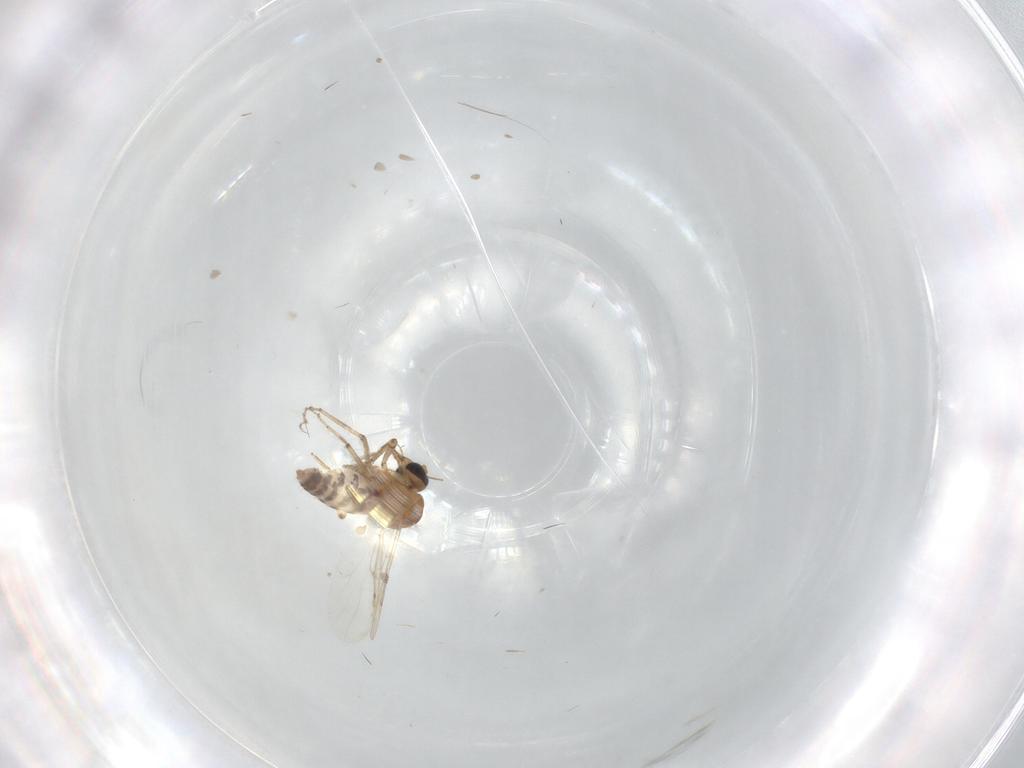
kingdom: Animalia
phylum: Arthropoda
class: Insecta
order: Diptera
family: Ceratopogonidae
